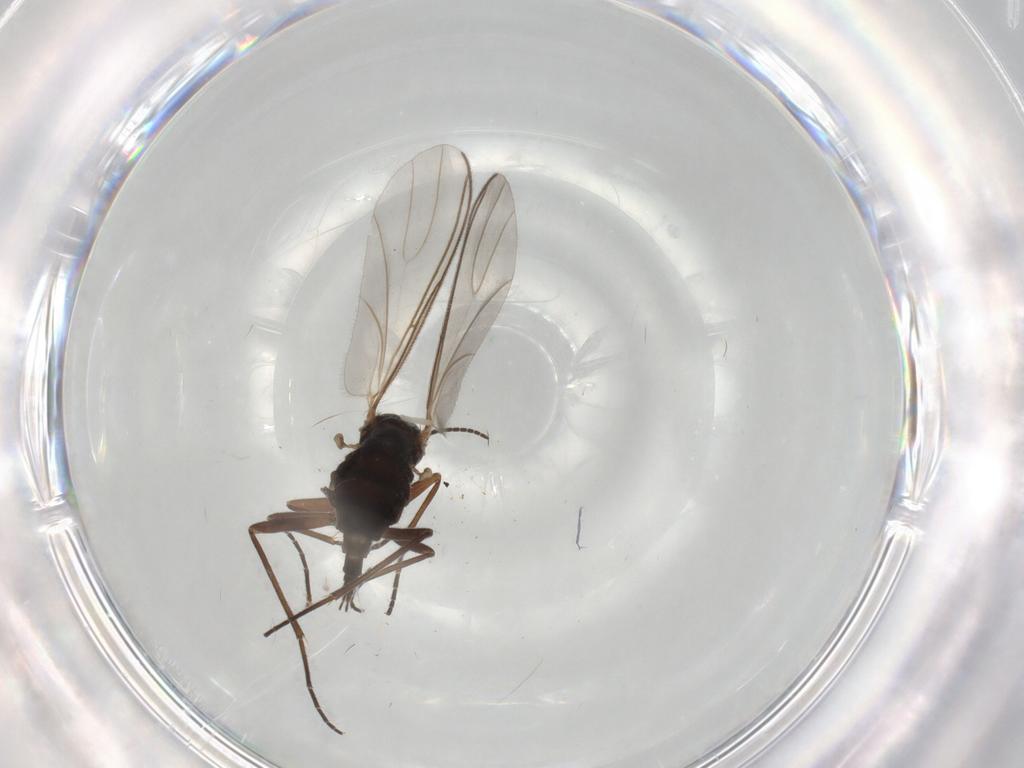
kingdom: Animalia
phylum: Arthropoda
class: Insecta
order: Diptera
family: Sciaridae
